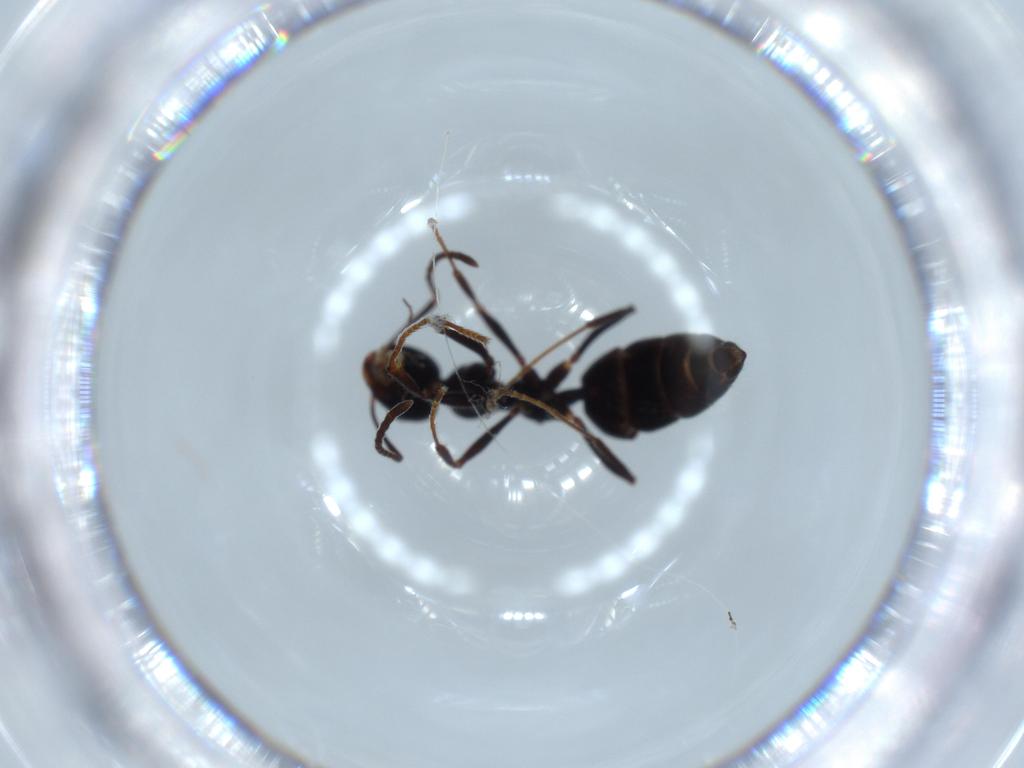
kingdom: Animalia
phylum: Arthropoda
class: Insecta
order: Hymenoptera
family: Formicidae
